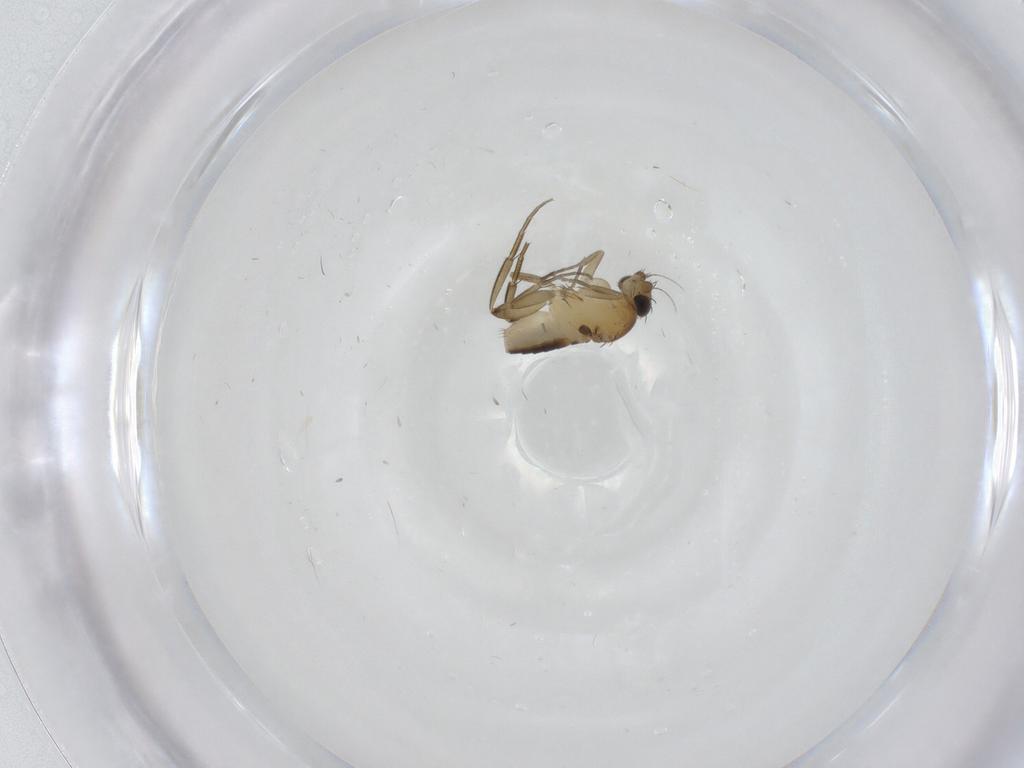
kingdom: Animalia
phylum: Arthropoda
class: Insecta
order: Diptera
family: Phoridae
